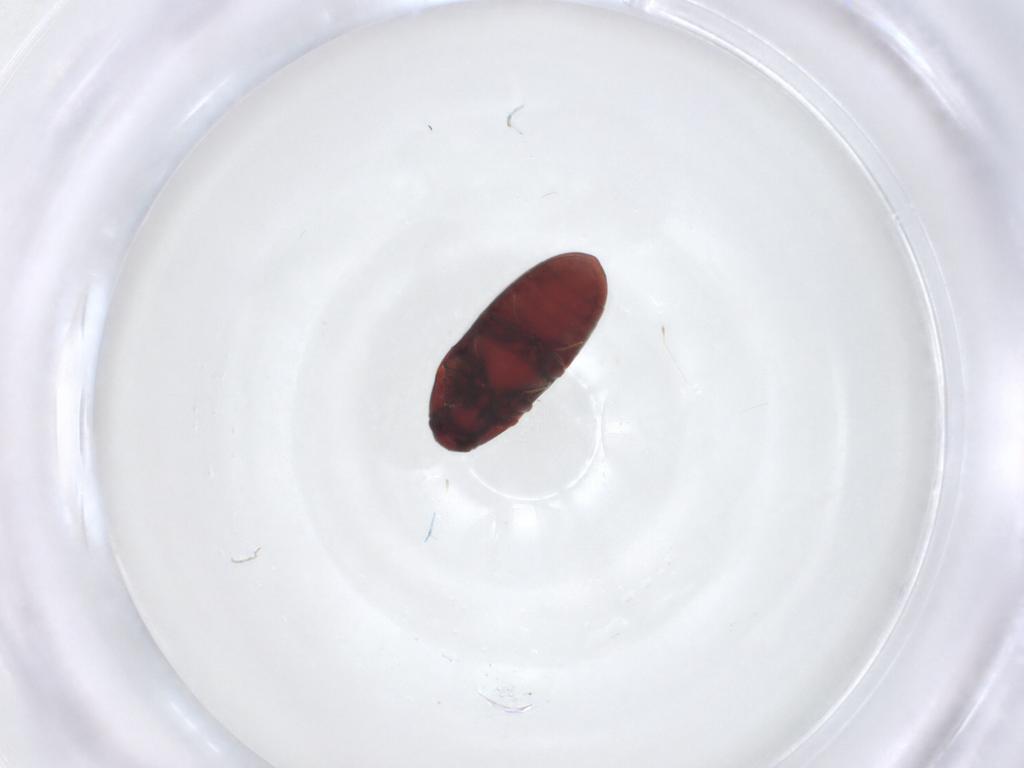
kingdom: Animalia
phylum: Arthropoda
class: Insecta
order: Coleoptera
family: Throscidae
